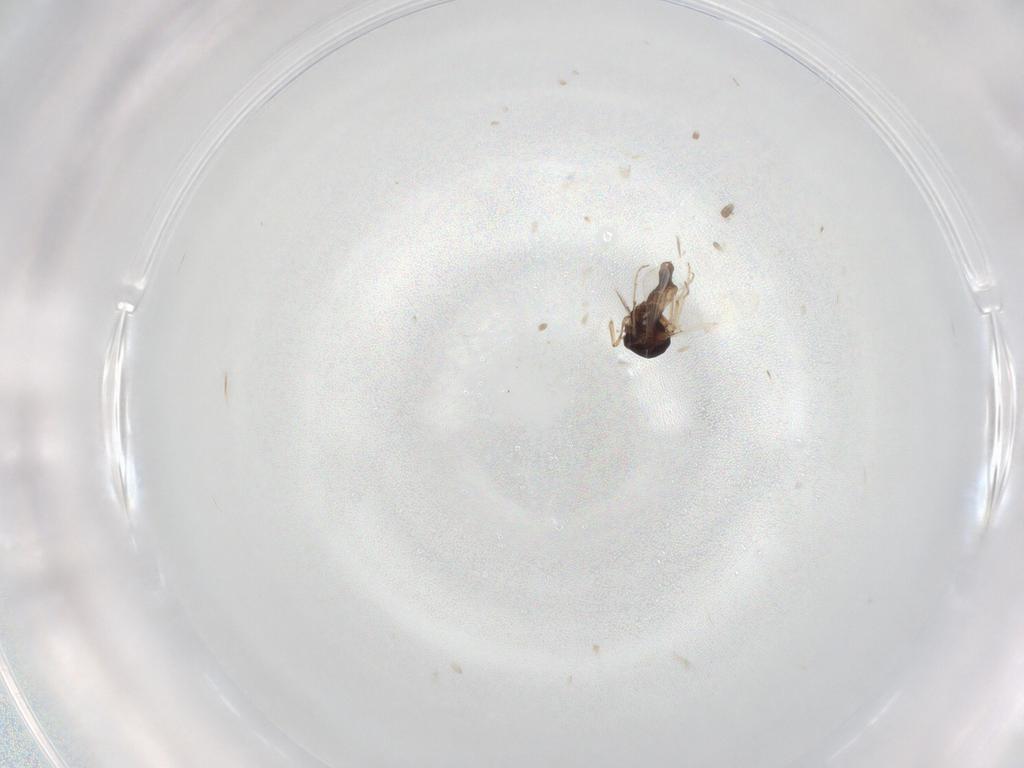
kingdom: Animalia
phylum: Arthropoda
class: Insecta
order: Diptera
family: Ceratopogonidae
